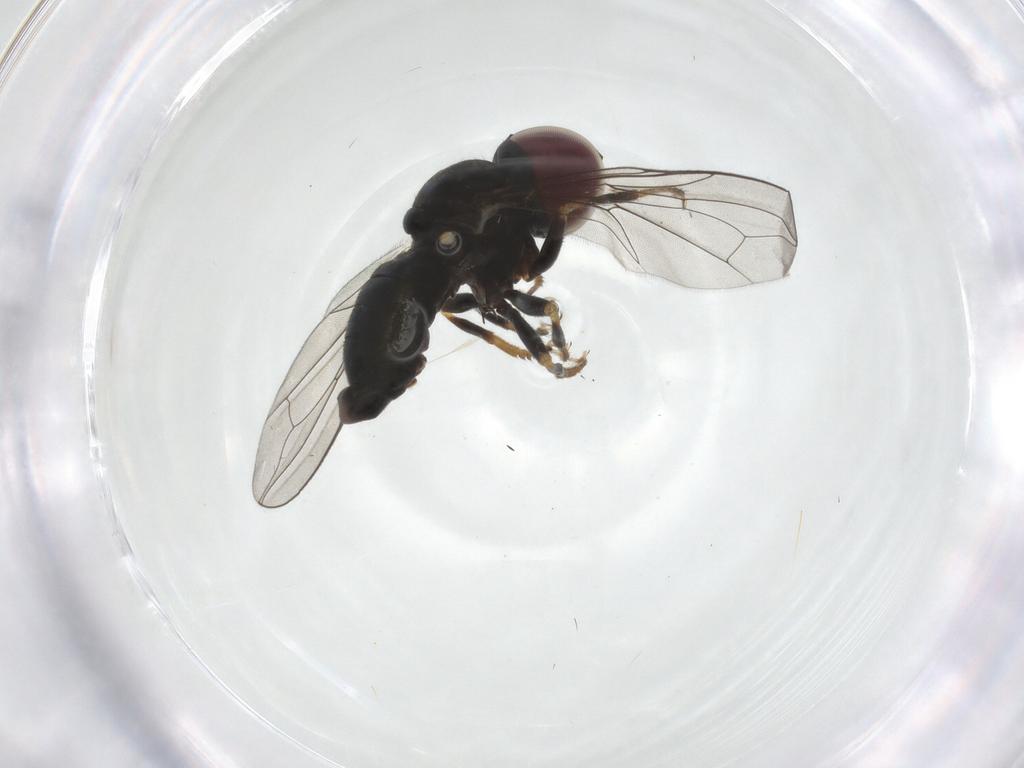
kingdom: Animalia
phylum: Arthropoda
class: Insecta
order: Diptera
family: Pipunculidae
